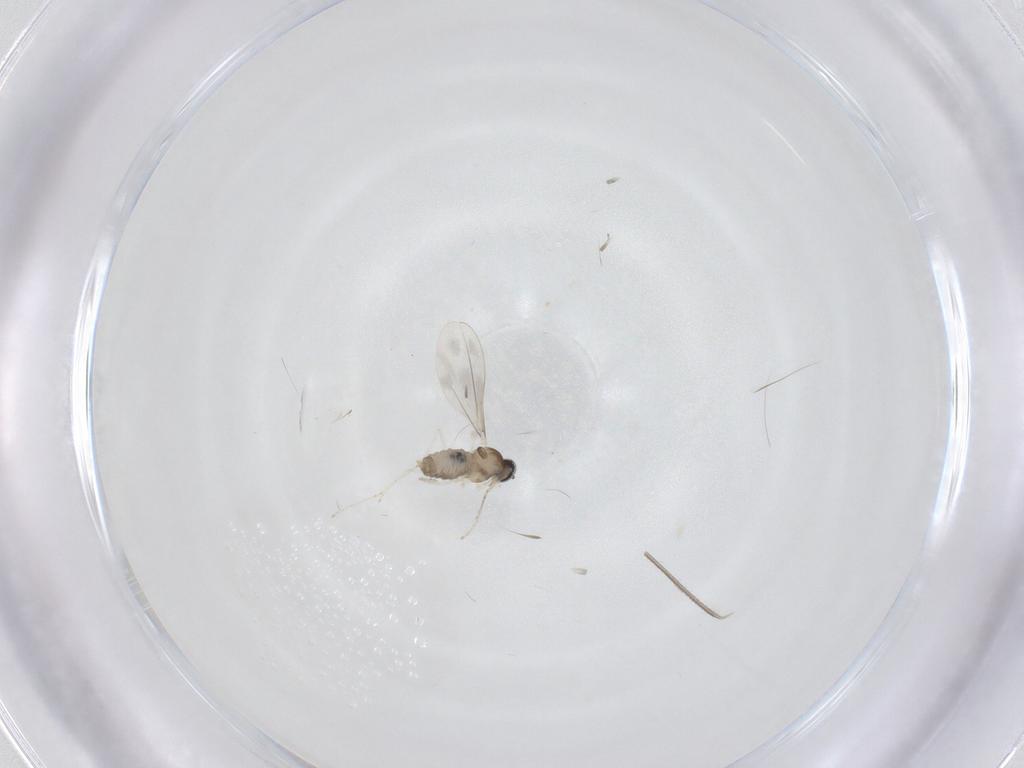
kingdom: Animalia
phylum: Arthropoda
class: Insecta
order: Diptera
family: Cecidomyiidae
